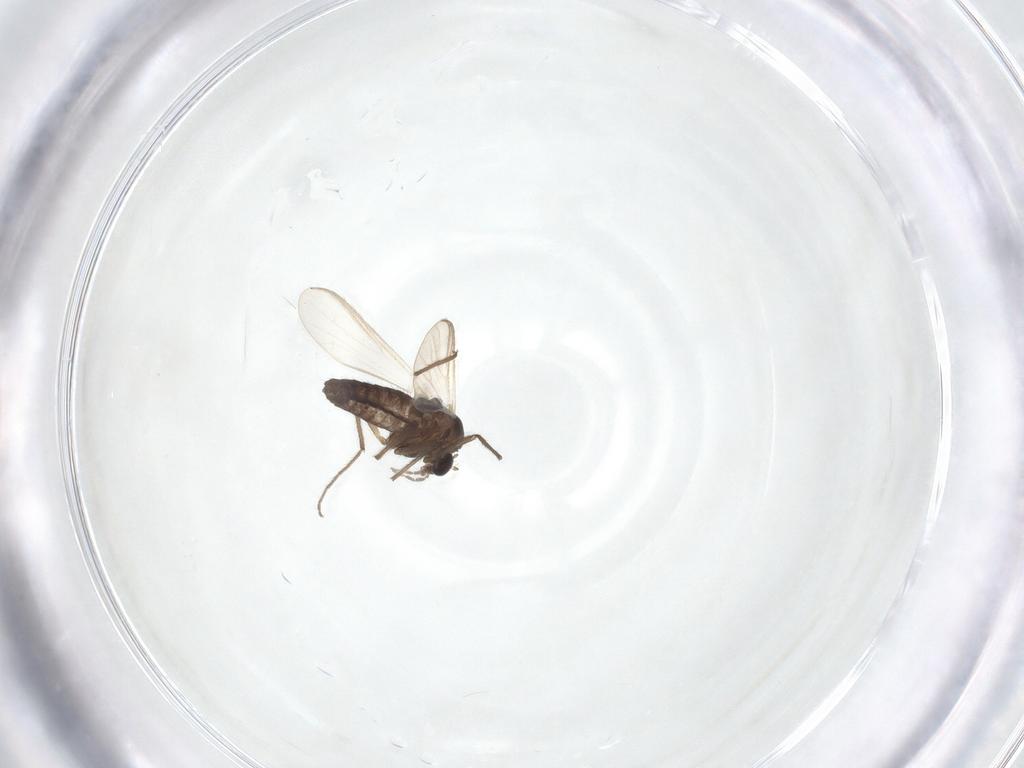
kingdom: Animalia
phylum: Arthropoda
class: Insecta
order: Diptera
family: Chironomidae
